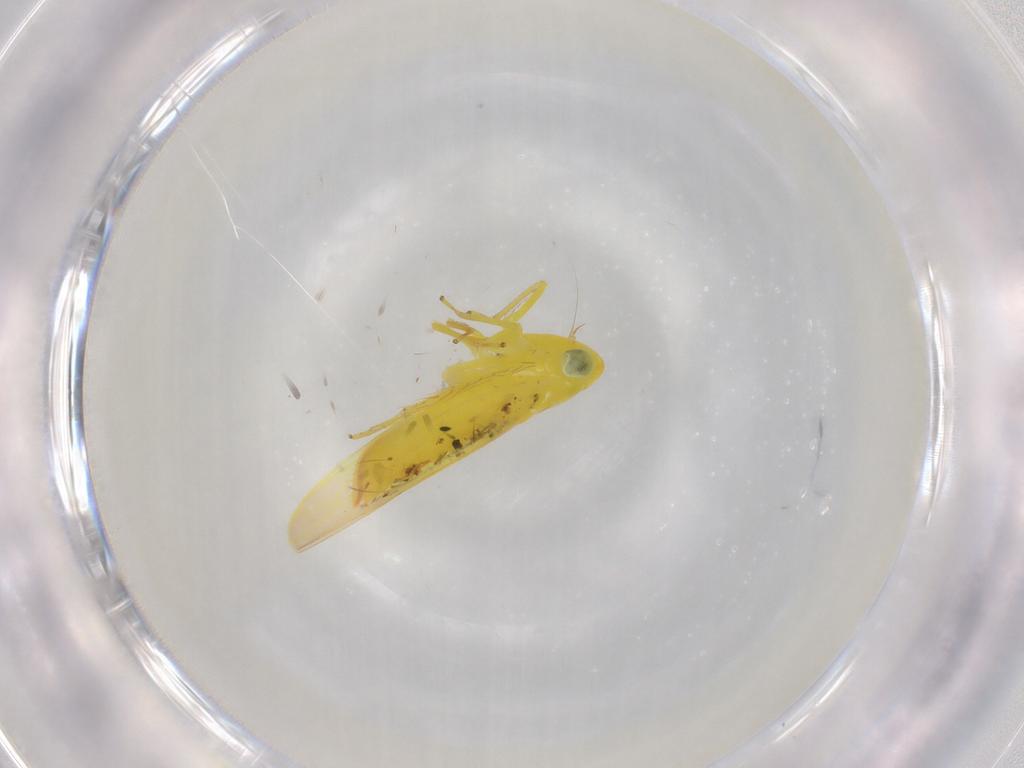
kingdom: Animalia
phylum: Arthropoda
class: Insecta
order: Hemiptera
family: Cicadellidae
